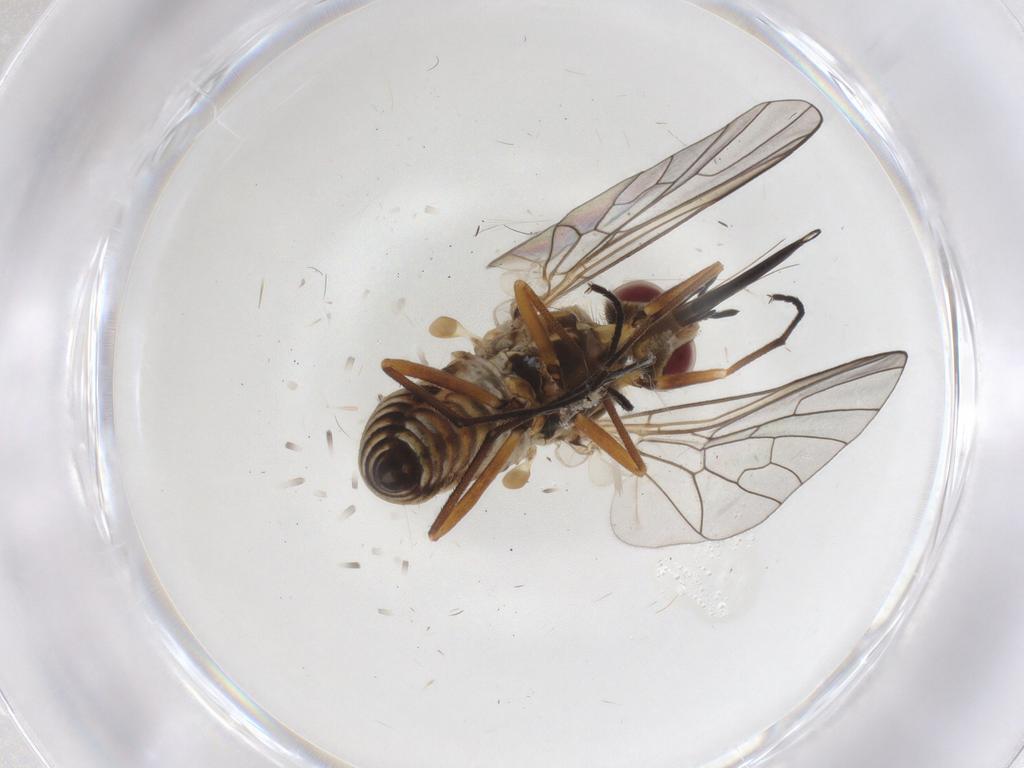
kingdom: Animalia
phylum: Arthropoda
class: Insecta
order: Diptera
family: Bombyliidae
